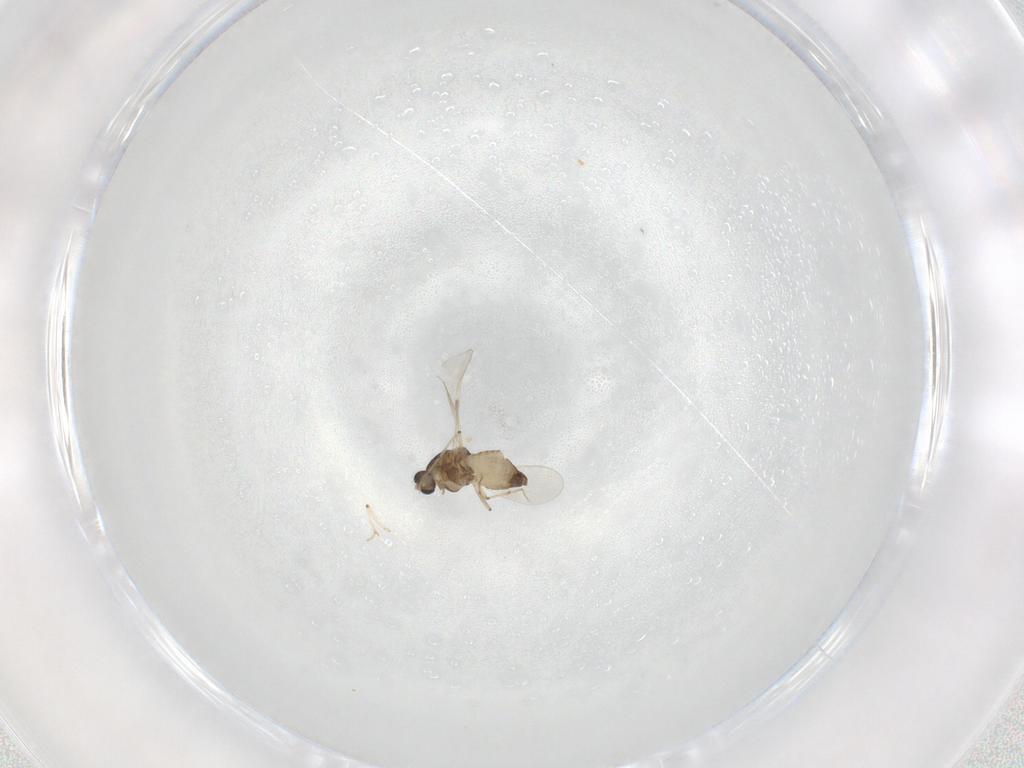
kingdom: Animalia
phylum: Arthropoda
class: Insecta
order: Diptera
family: Chironomidae
